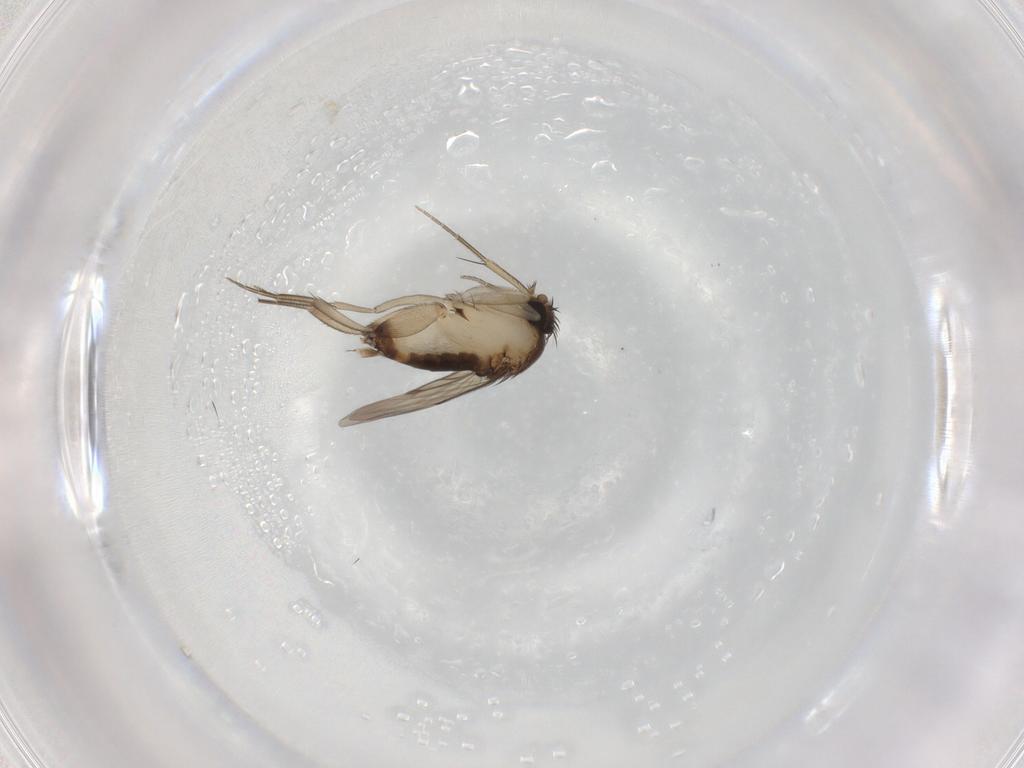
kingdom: Animalia
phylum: Arthropoda
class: Insecta
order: Diptera
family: Phoridae
